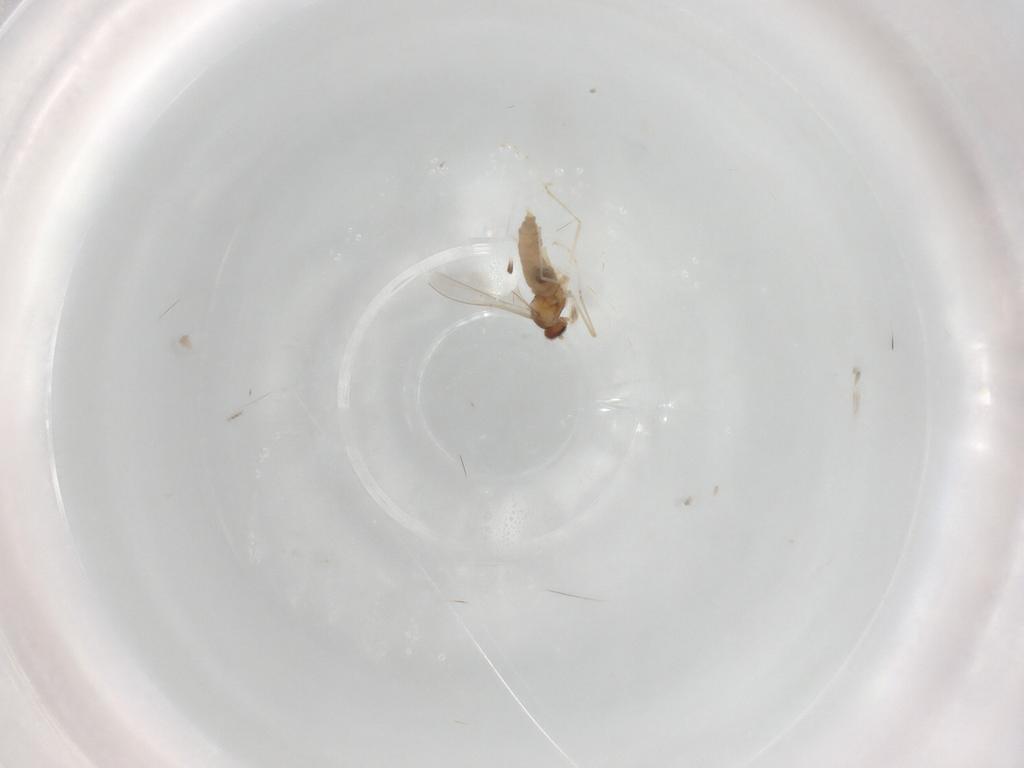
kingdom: Animalia
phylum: Arthropoda
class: Insecta
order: Diptera
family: Cecidomyiidae
